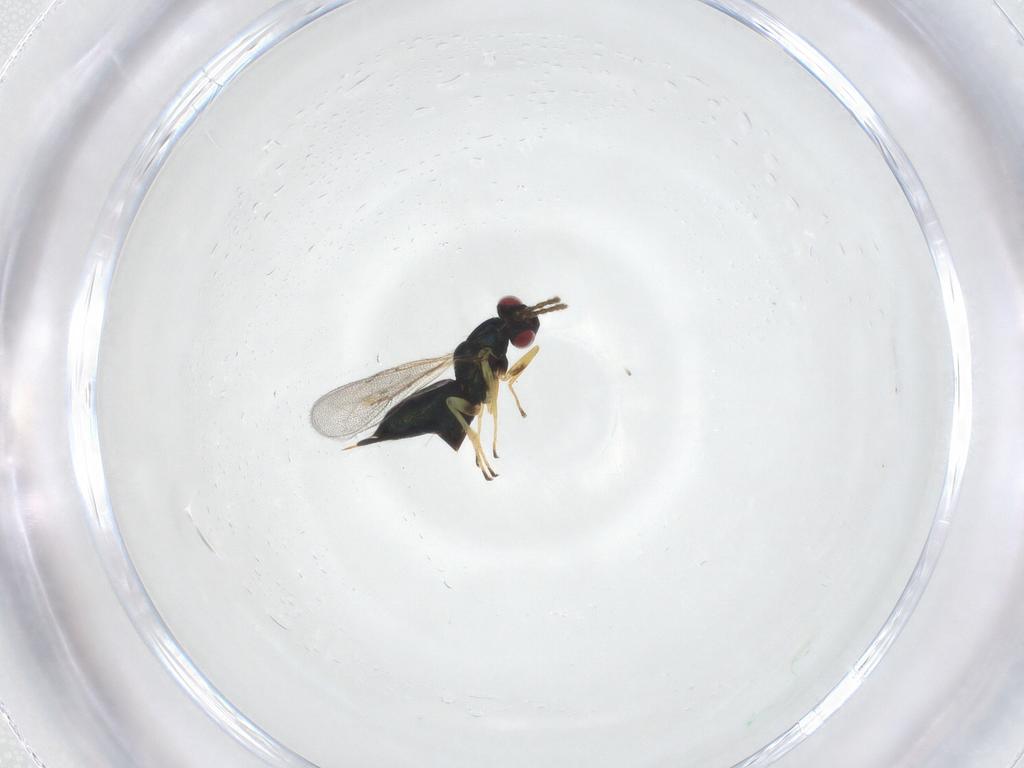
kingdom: Animalia
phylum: Arthropoda
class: Insecta
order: Hymenoptera
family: Eulophidae
